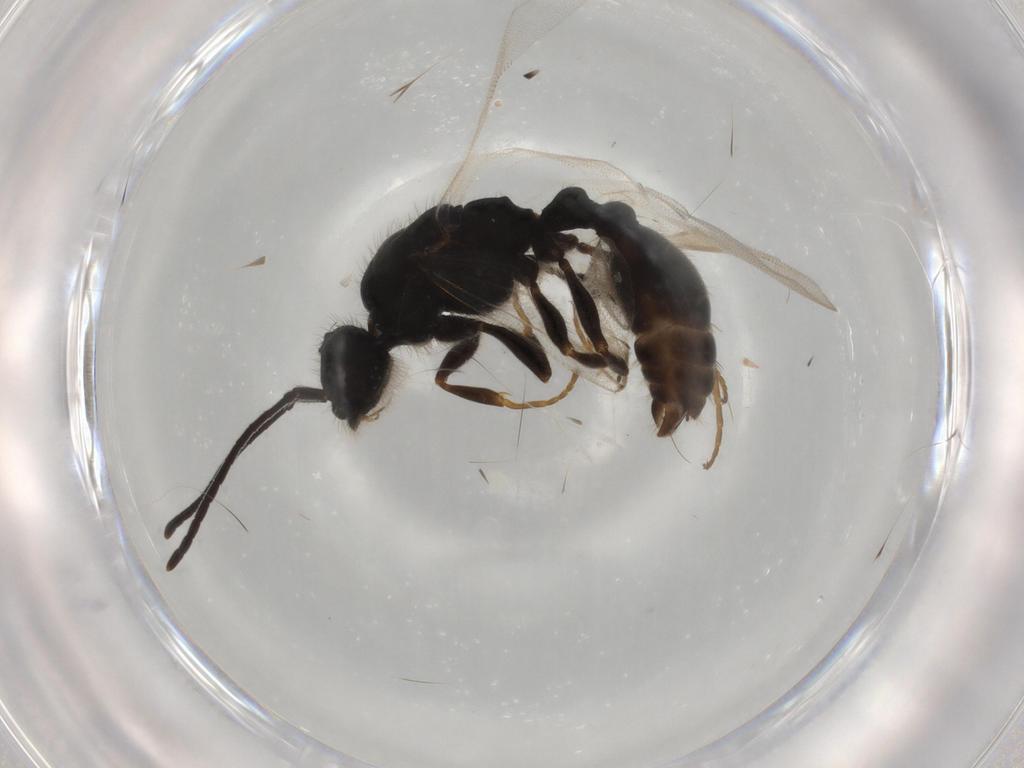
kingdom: Animalia
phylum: Arthropoda
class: Insecta
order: Hymenoptera
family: Formicidae
